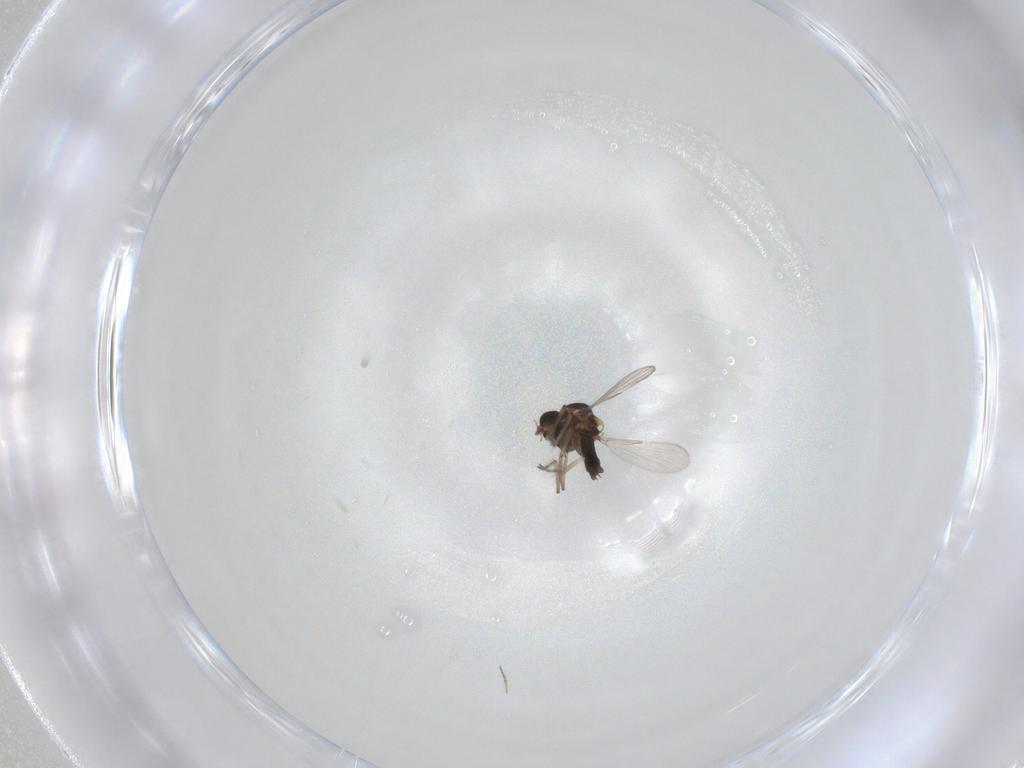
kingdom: Animalia
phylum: Arthropoda
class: Insecta
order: Diptera
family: Ceratopogonidae
